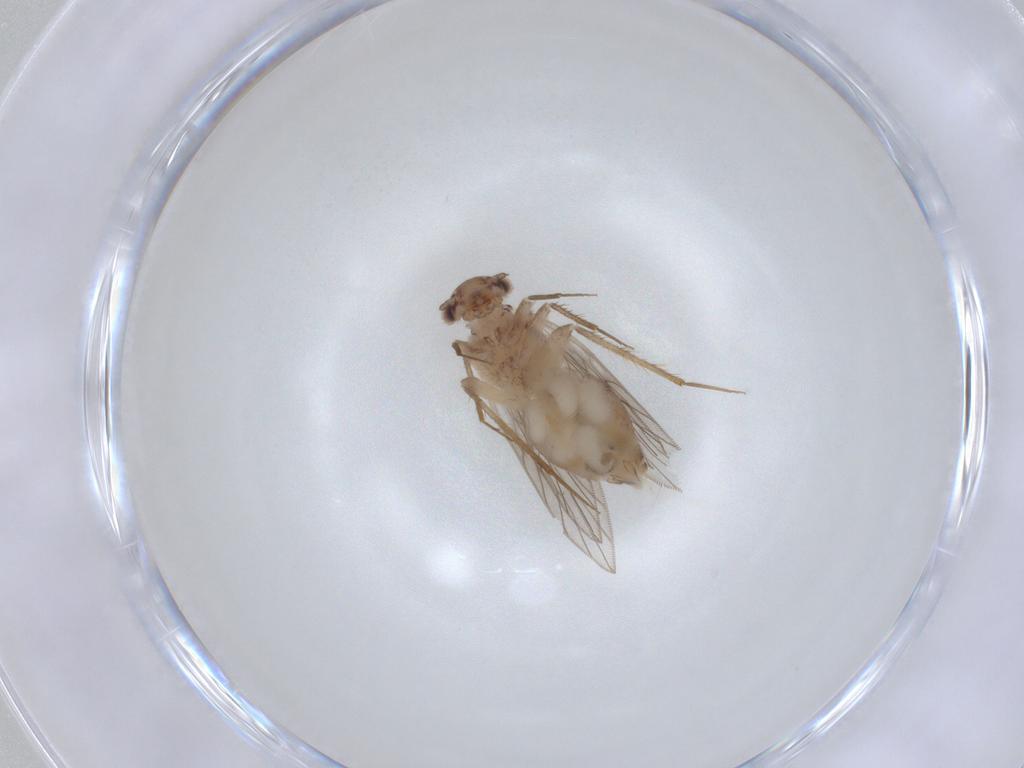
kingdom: Animalia
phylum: Arthropoda
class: Insecta
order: Psocodea
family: Lepidopsocidae
